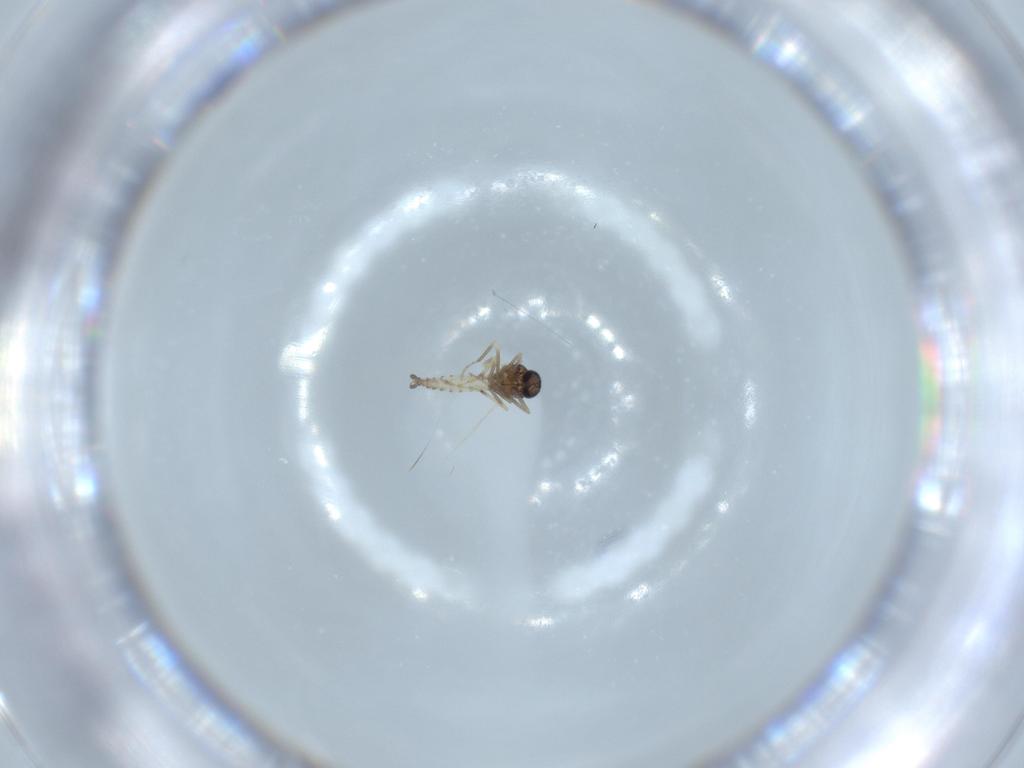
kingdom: Animalia
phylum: Arthropoda
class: Insecta
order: Diptera
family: Ceratopogonidae
